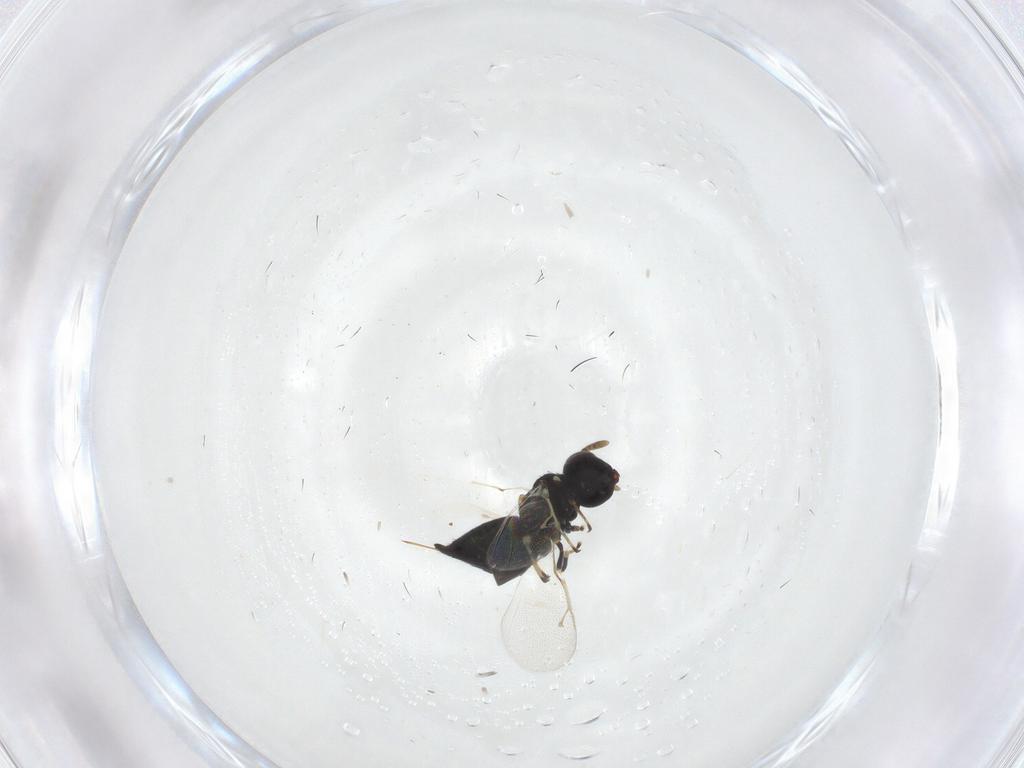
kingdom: Animalia
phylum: Arthropoda
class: Insecta
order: Hymenoptera
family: Pteromalidae
